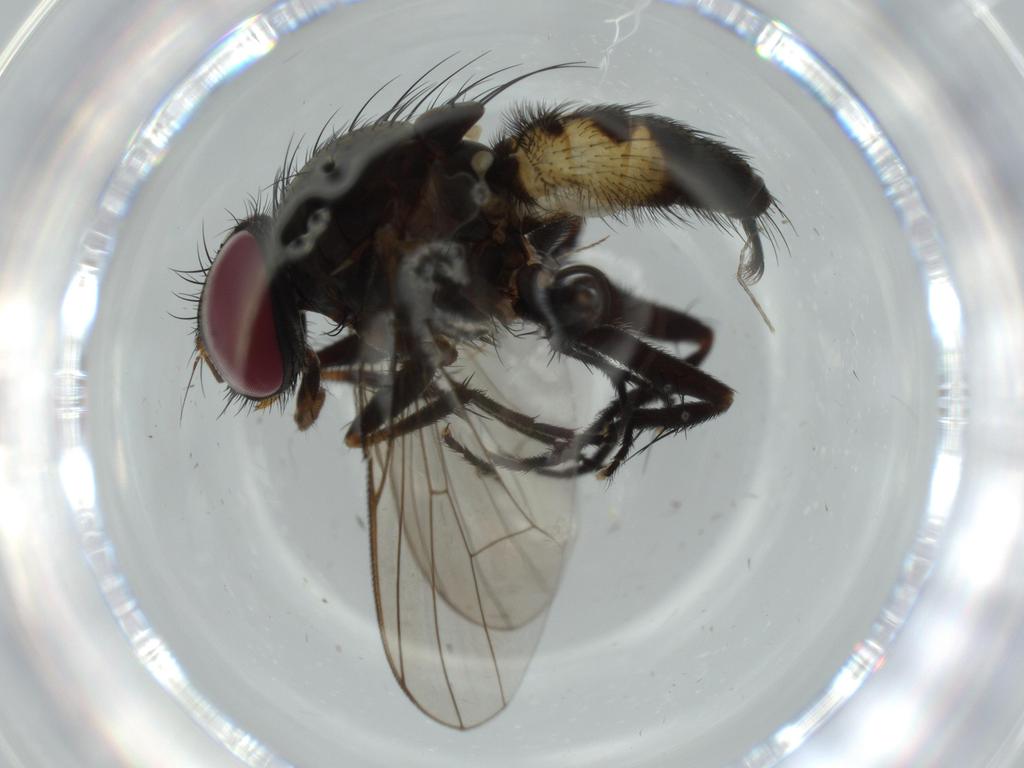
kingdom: Animalia
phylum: Arthropoda
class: Insecta
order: Diptera
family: Fannia
